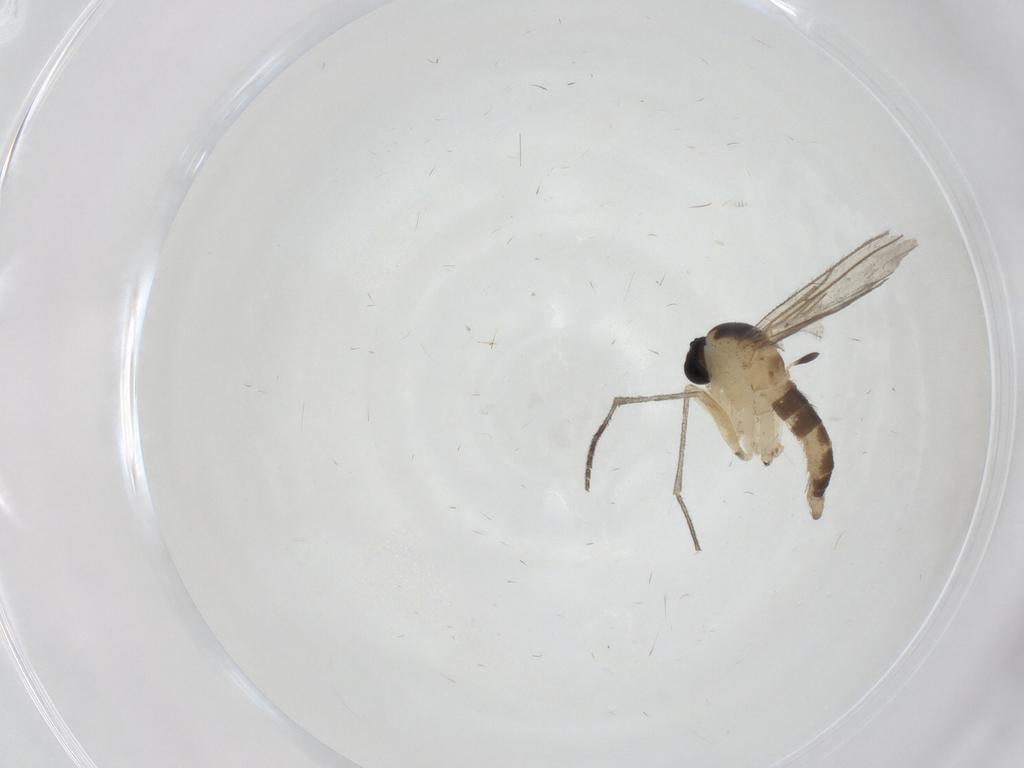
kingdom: Animalia
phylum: Arthropoda
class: Insecta
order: Diptera
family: Sciaridae
